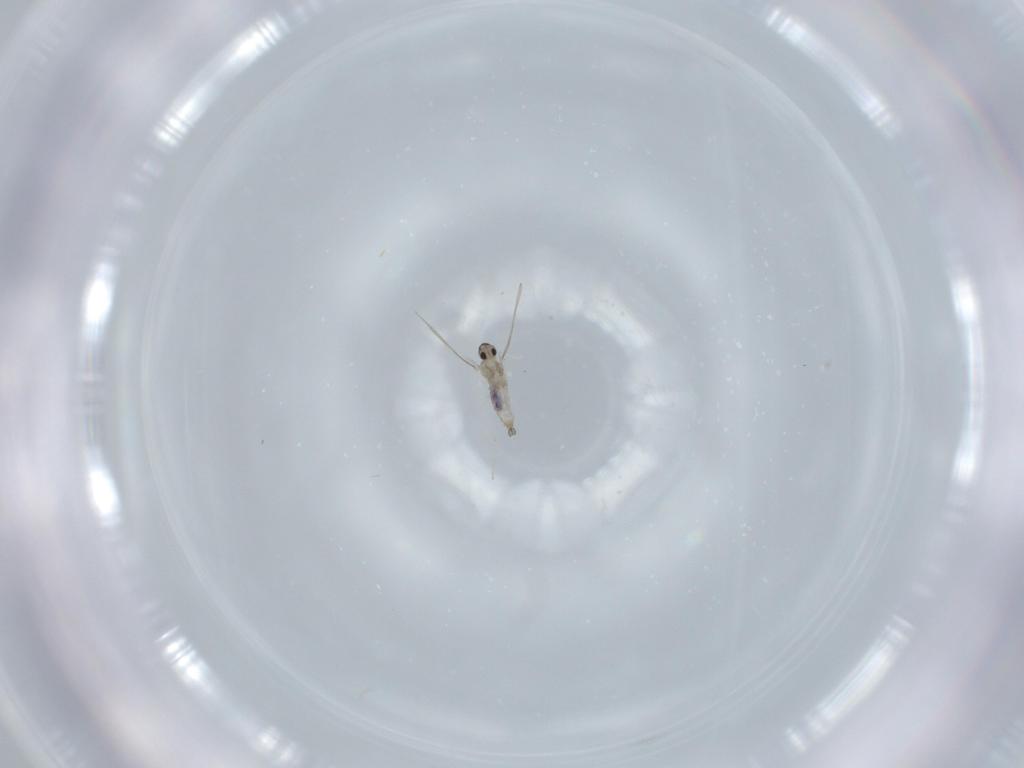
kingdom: Animalia
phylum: Arthropoda
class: Insecta
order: Diptera
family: Cecidomyiidae
